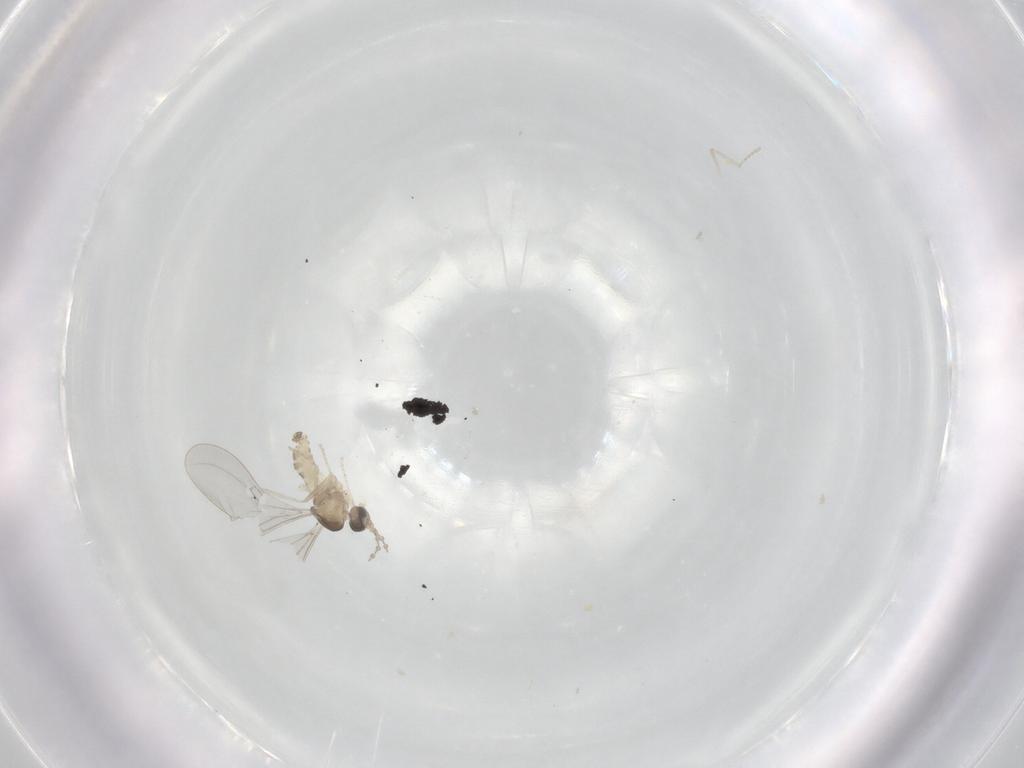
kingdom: Animalia
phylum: Arthropoda
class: Insecta
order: Diptera
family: Cecidomyiidae
